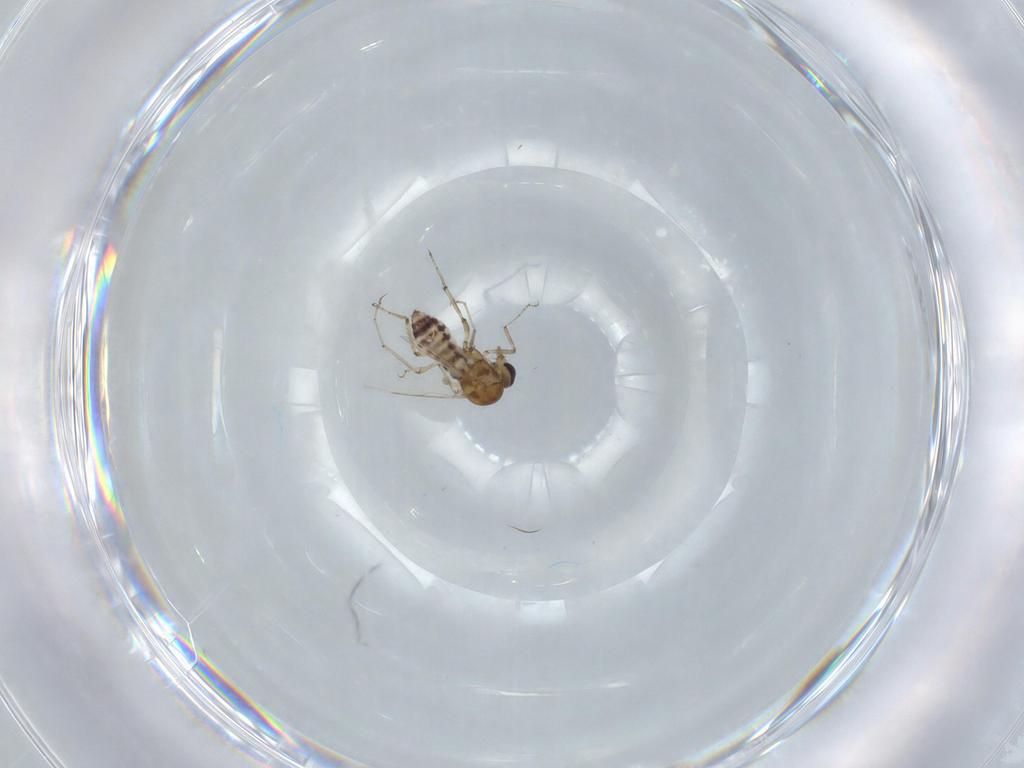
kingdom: Animalia
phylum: Arthropoda
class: Insecta
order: Diptera
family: Ceratopogonidae
